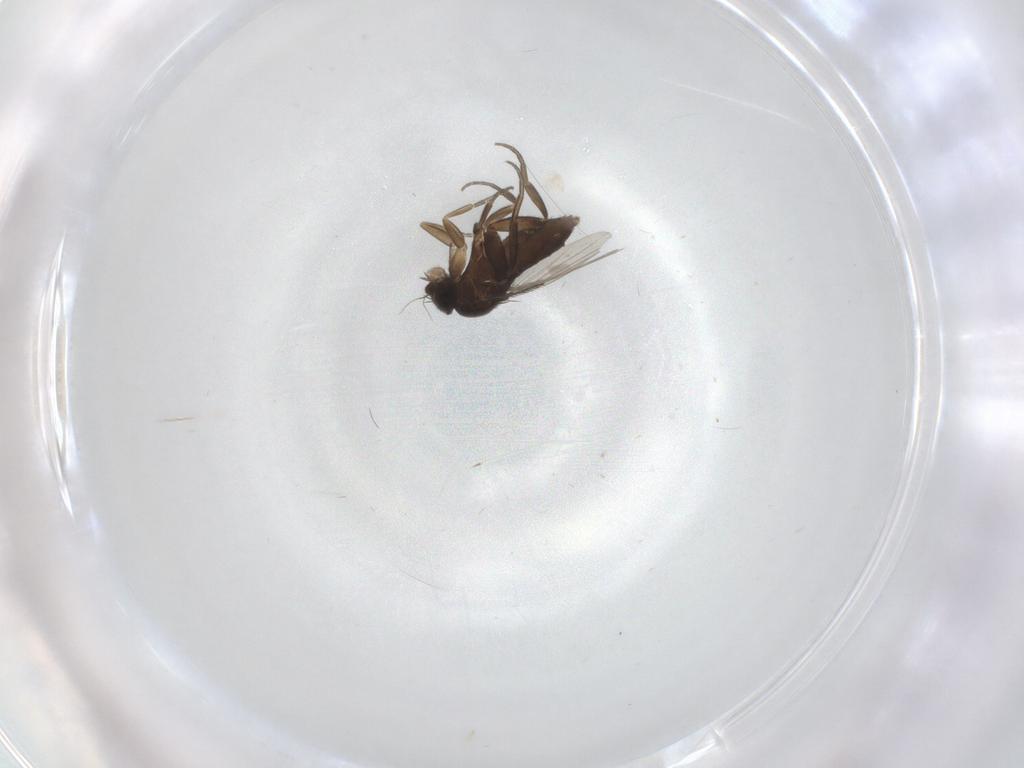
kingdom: Animalia
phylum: Arthropoda
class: Insecta
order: Diptera
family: Phoridae
